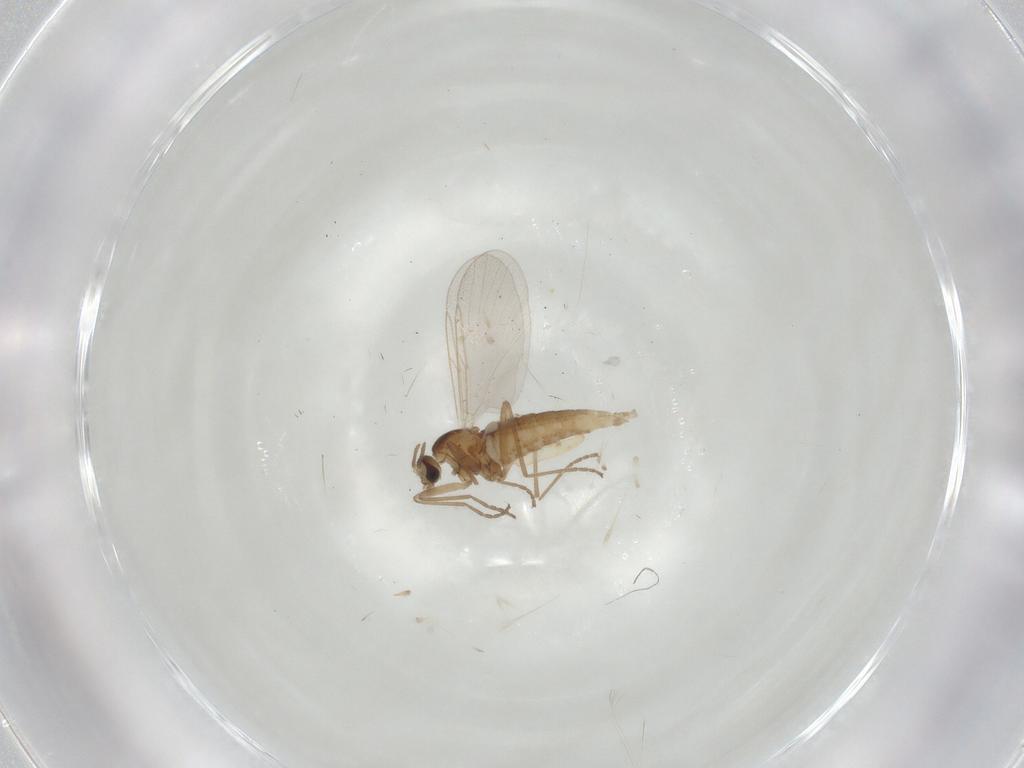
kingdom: Animalia
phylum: Arthropoda
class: Insecta
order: Diptera
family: Cecidomyiidae
